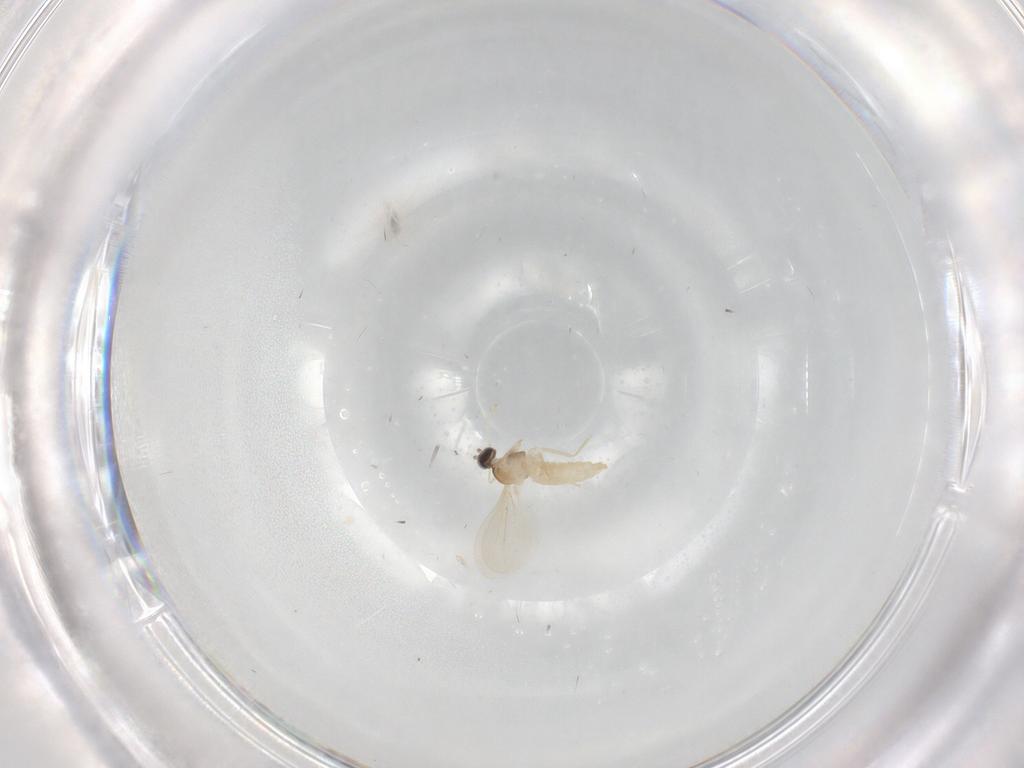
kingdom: Animalia
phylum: Arthropoda
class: Insecta
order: Diptera
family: Cecidomyiidae
